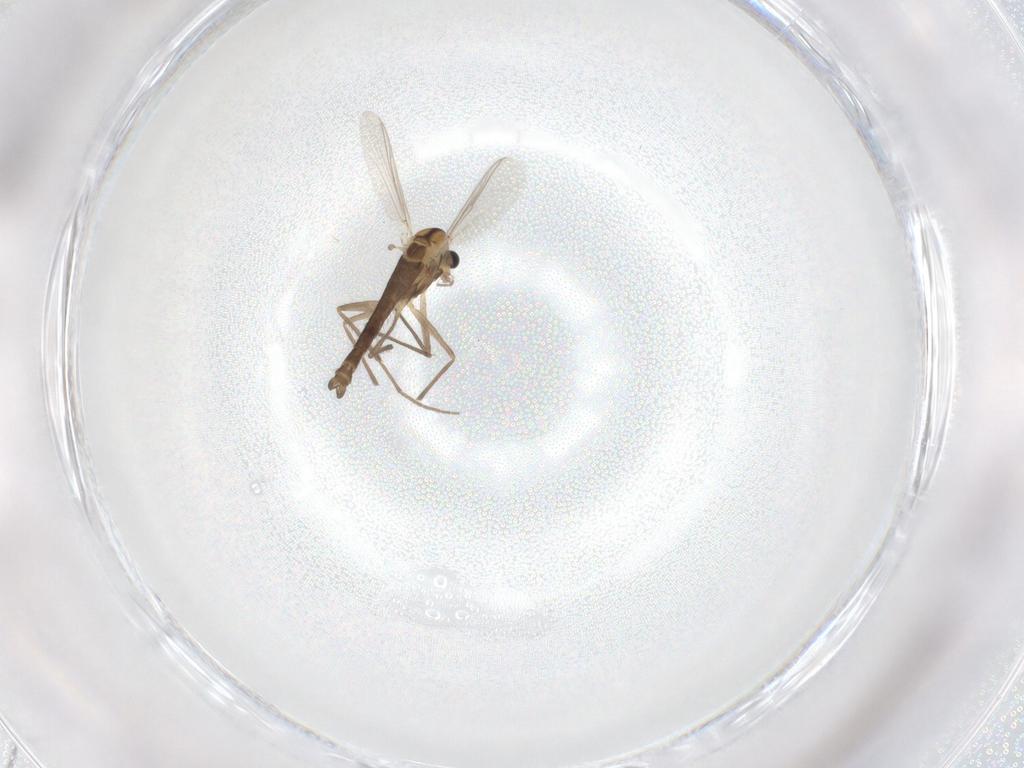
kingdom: Animalia
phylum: Arthropoda
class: Insecta
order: Diptera
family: Chironomidae
